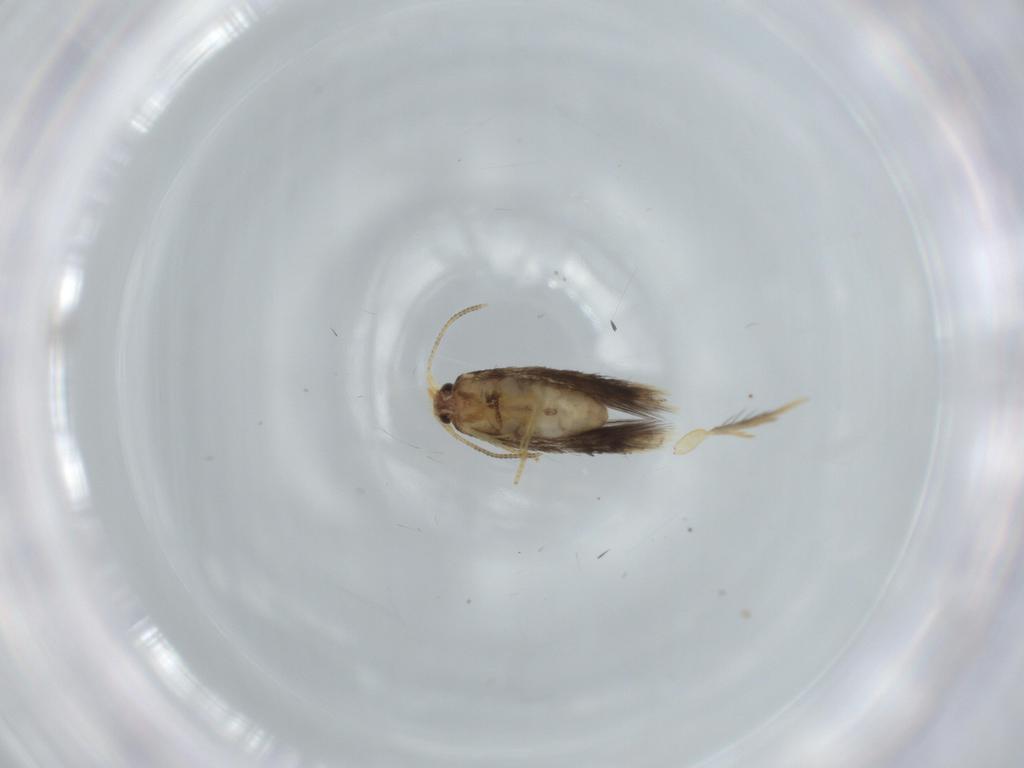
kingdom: Animalia
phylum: Arthropoda
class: Insecta
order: Lepidoptera
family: Nepticulidae
